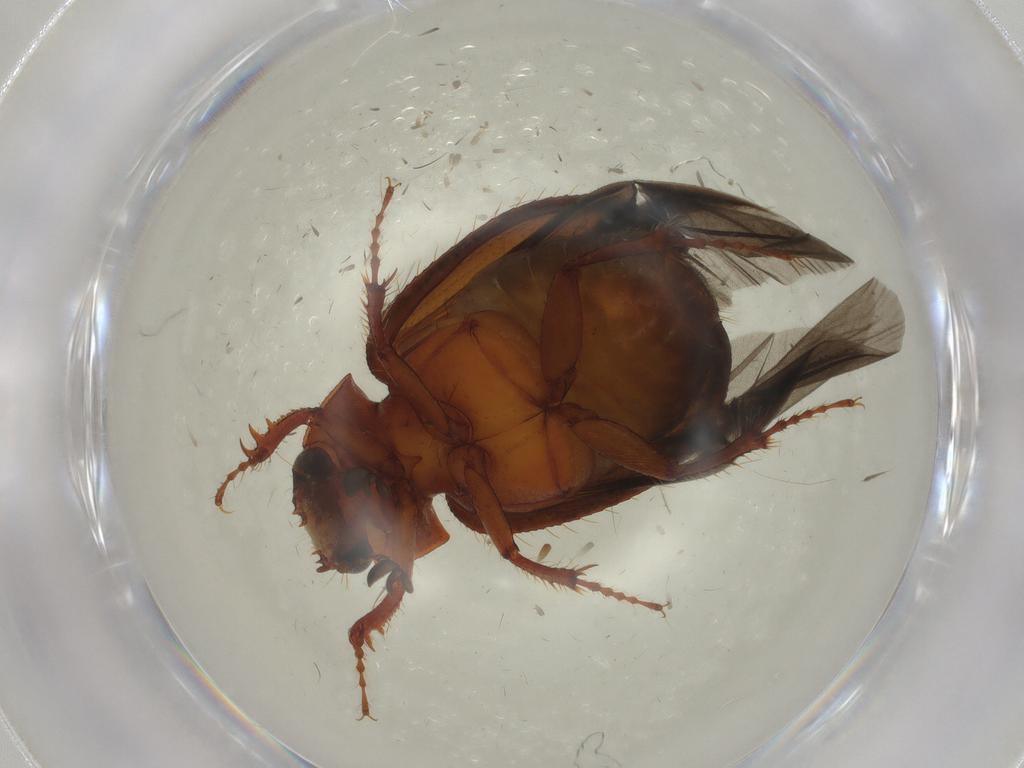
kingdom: Animalia
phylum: Arthropoda
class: Insecta
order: Coleoptera
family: Hybosoridae
